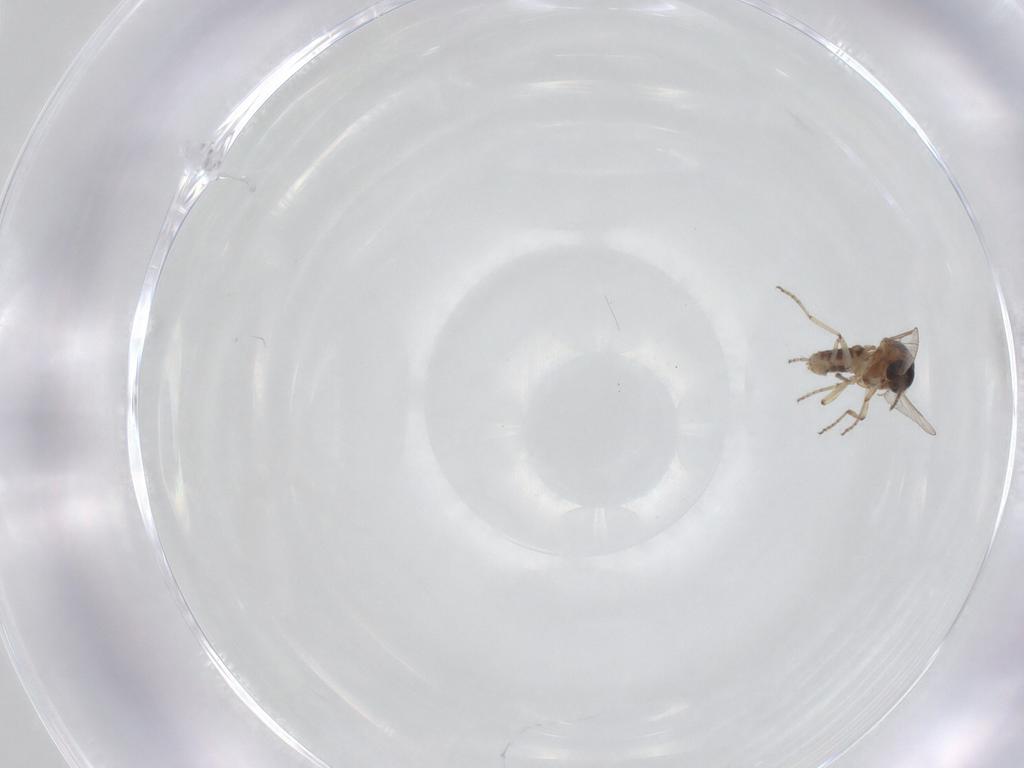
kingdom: Animalia
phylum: Arthropoda
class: Insecta
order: Diptera
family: Ceratopogonidae
